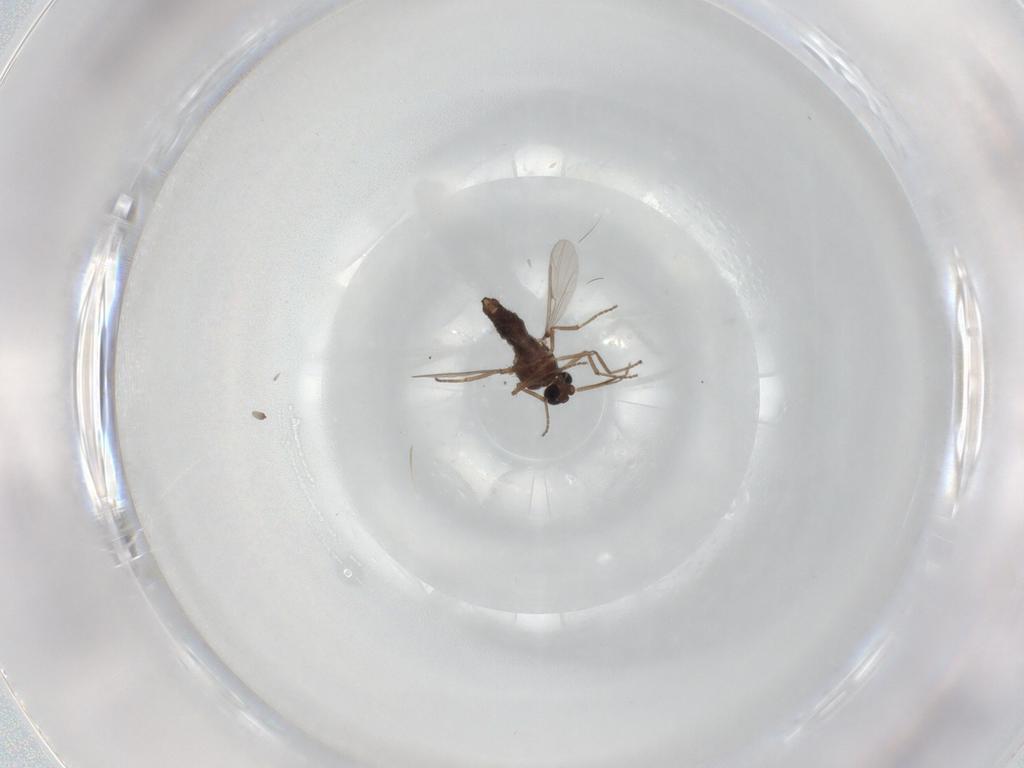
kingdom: Animalia
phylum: Arthropoda
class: Insecta
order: Diptera
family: Ceratopogonidae
